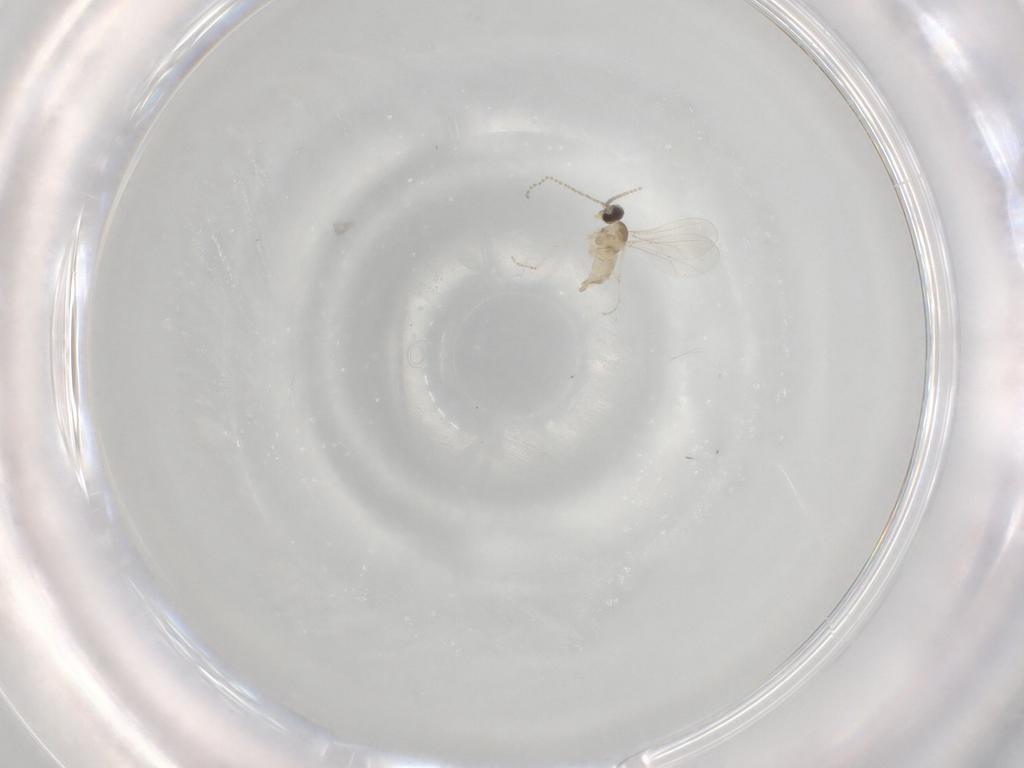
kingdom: Animalia
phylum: Arthropoda
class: Insecta
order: Diptera
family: Cecidomyiidae
